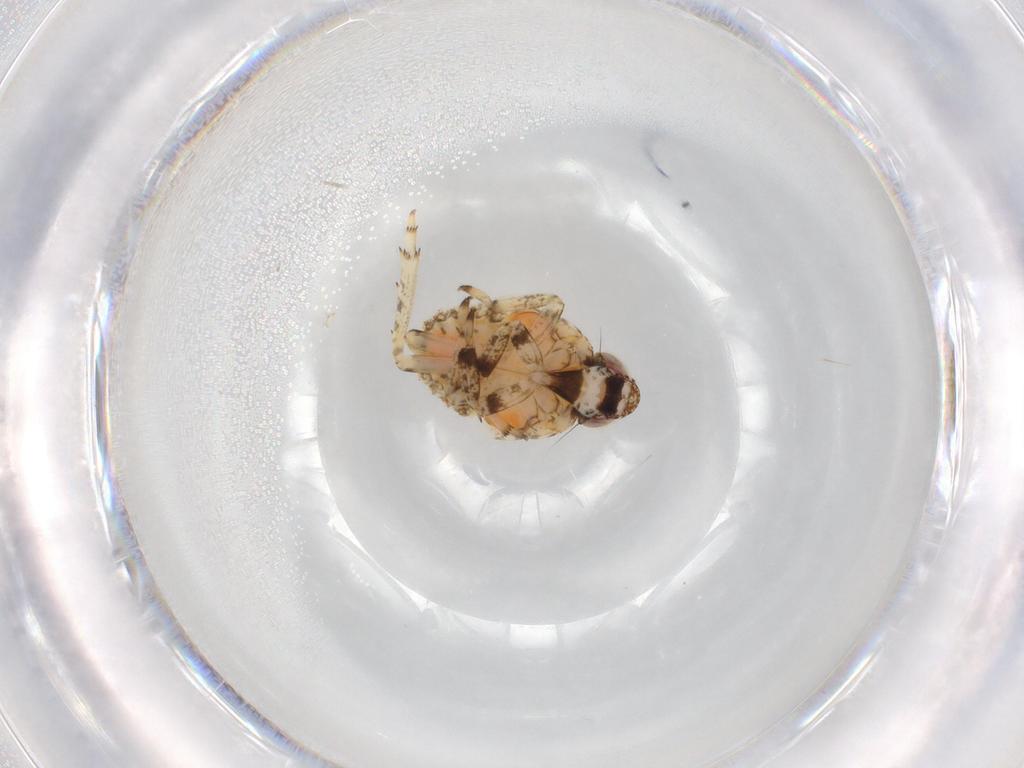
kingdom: Animalia
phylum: Arthropoda
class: Insecta
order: Hemiptera
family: Issidae
